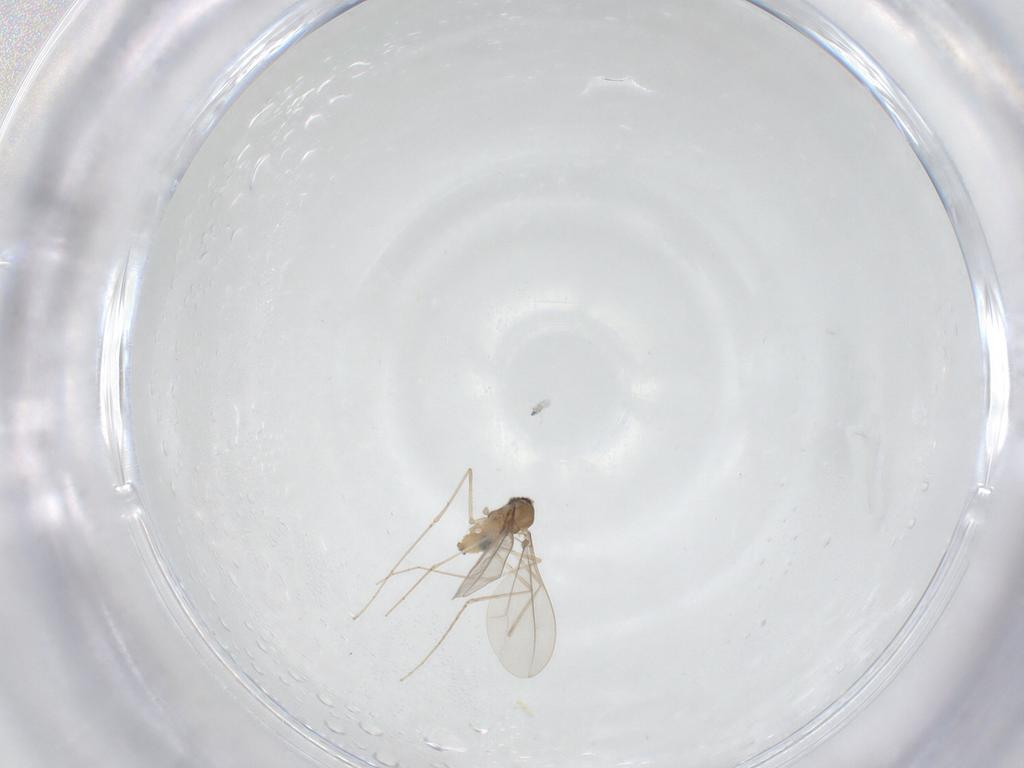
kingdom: Animalia
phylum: Arthropoda
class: Insecta
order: Diptera
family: Cecidomyiidae
